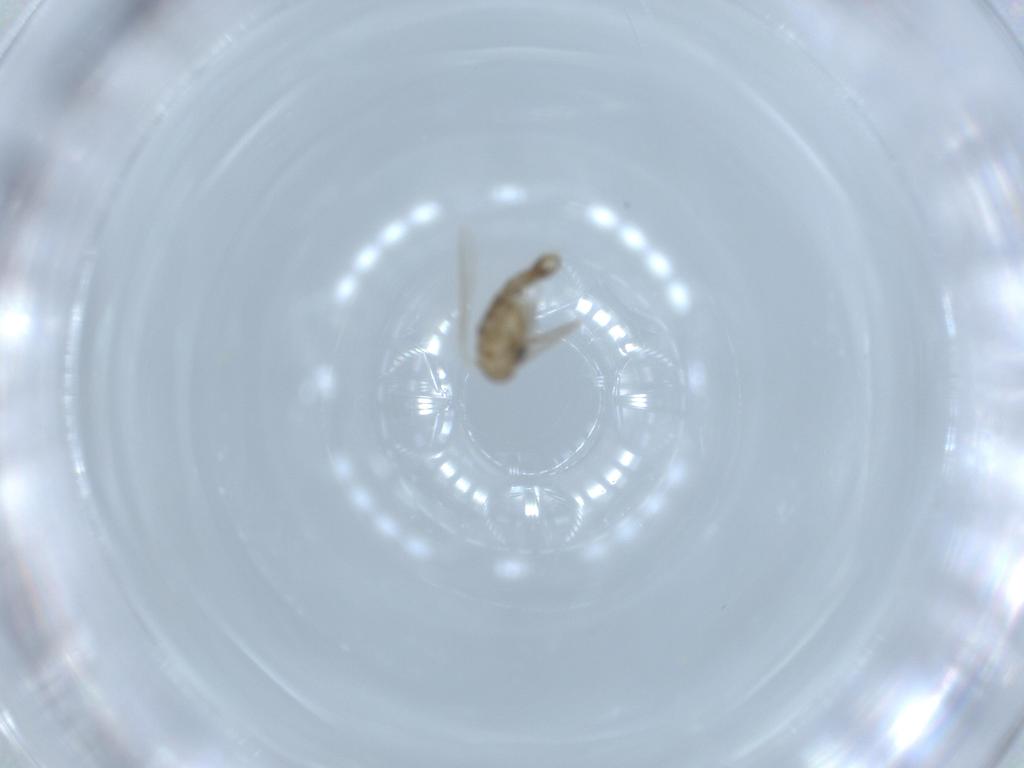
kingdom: Animalia
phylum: Arthropoda
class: Insecta
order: Diptera
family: Psychodidae
